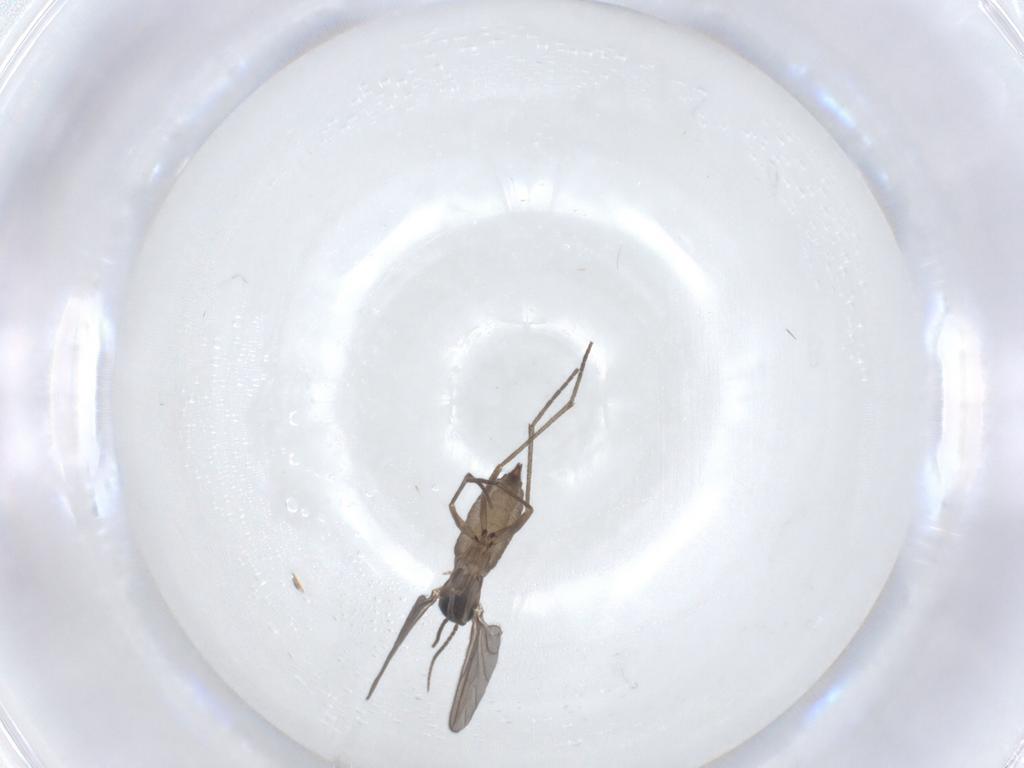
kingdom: Animalia
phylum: Arthropoda
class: Insecta
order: Diptera
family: Sciaridae
